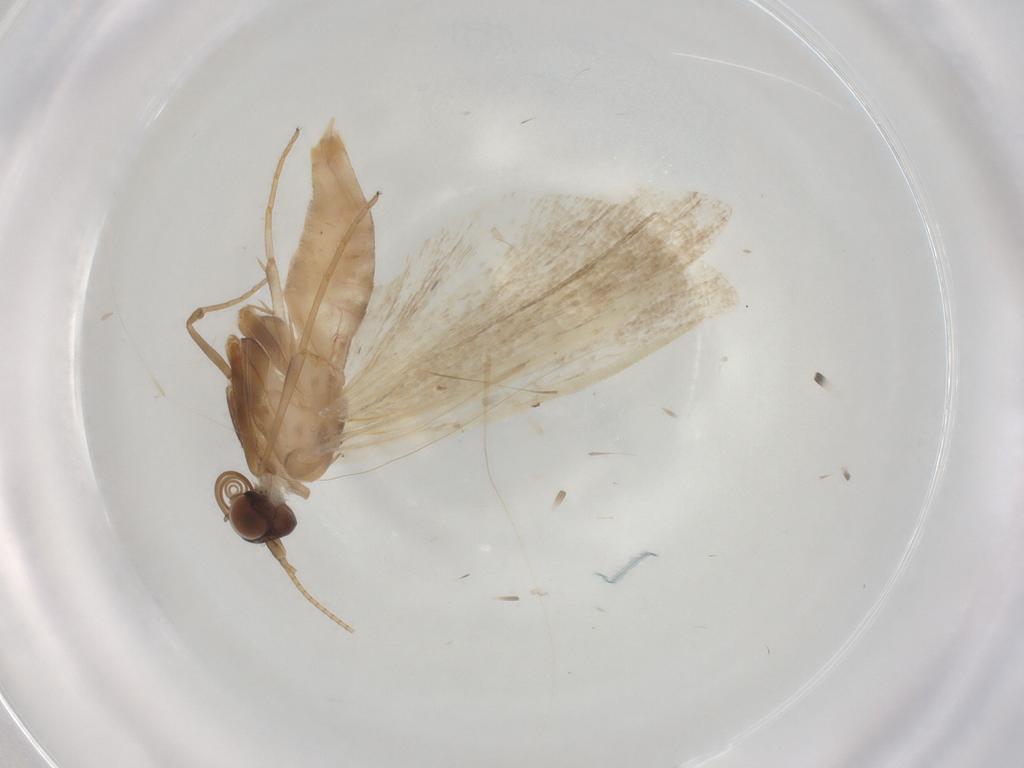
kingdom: Animalia
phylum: Arthropoda
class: Insecta
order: Lepidoptera
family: Noctuidae
